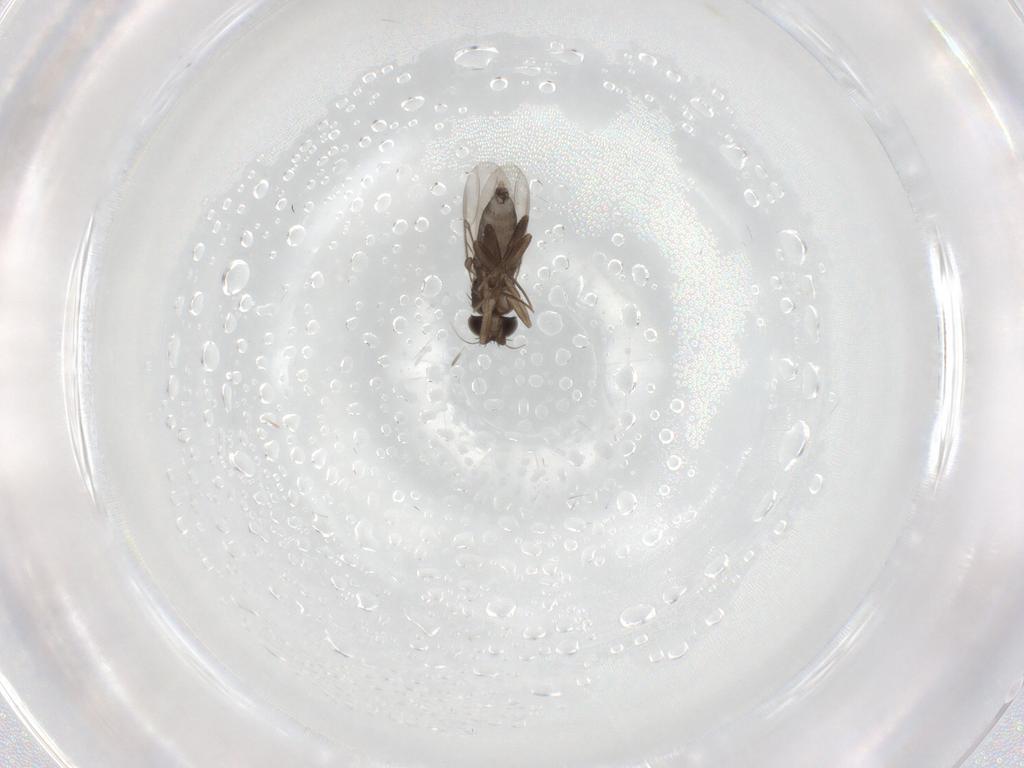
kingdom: Animalia
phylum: Arthropoda
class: Insecta
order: Diptera
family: Phoridae
